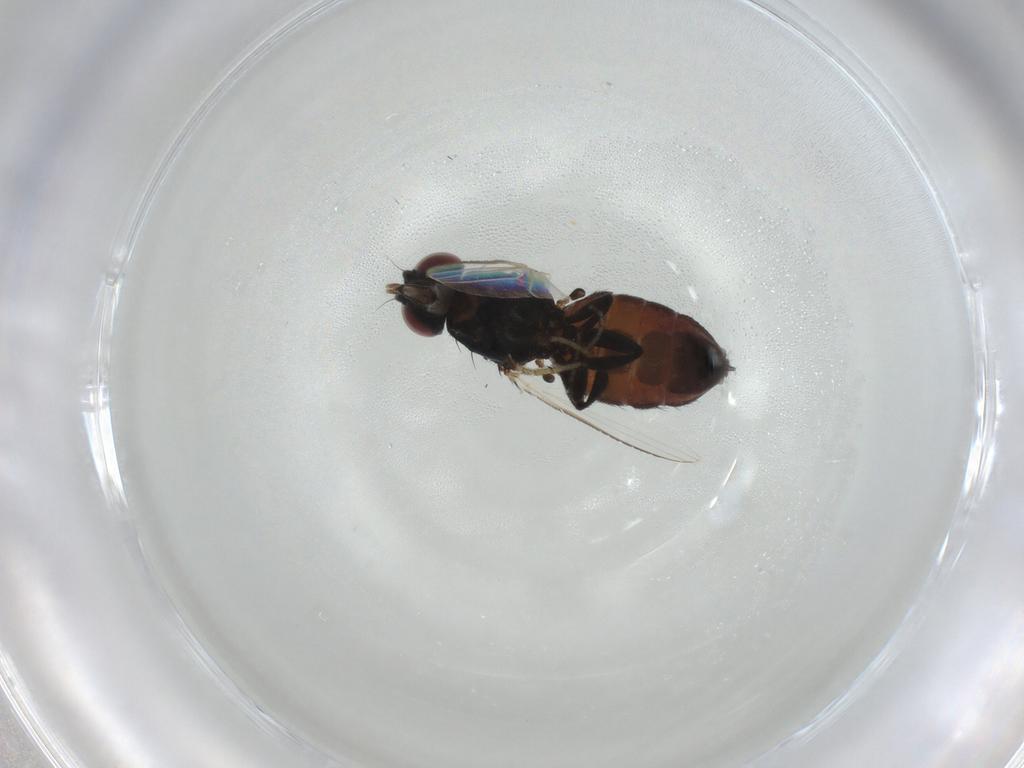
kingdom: Animalia
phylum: Arthropoda
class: Insecta
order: Diptera
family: Milichiidae
